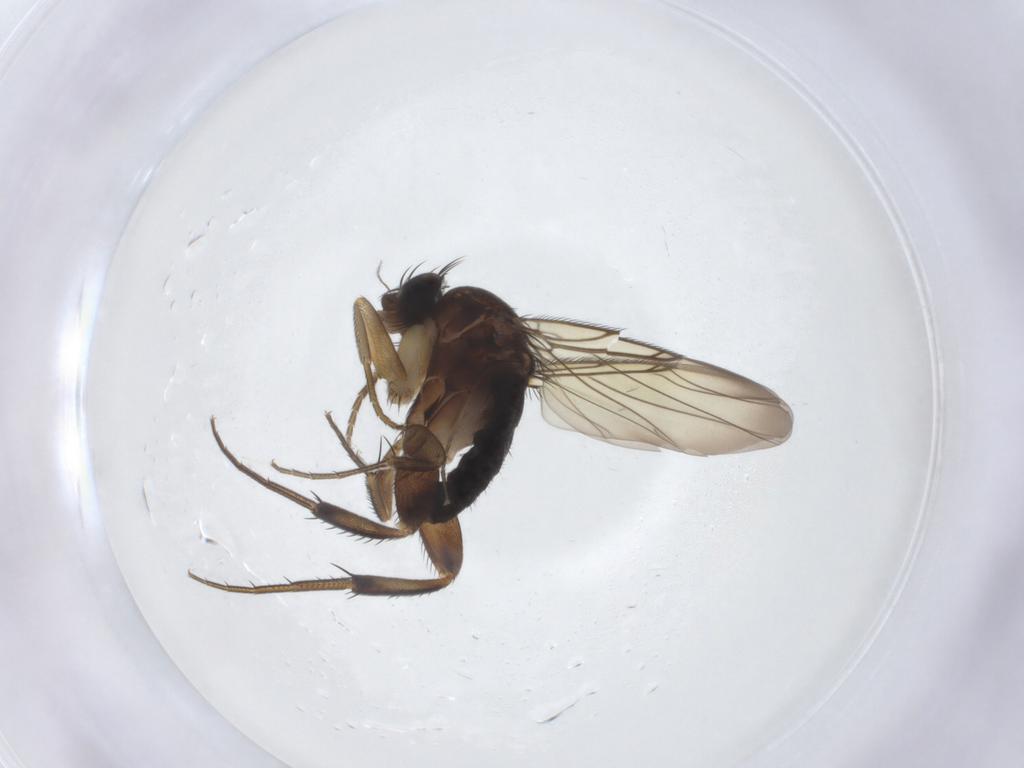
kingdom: Animalia
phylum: Arthropoda
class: Insecta
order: Diptera
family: Phoridae
